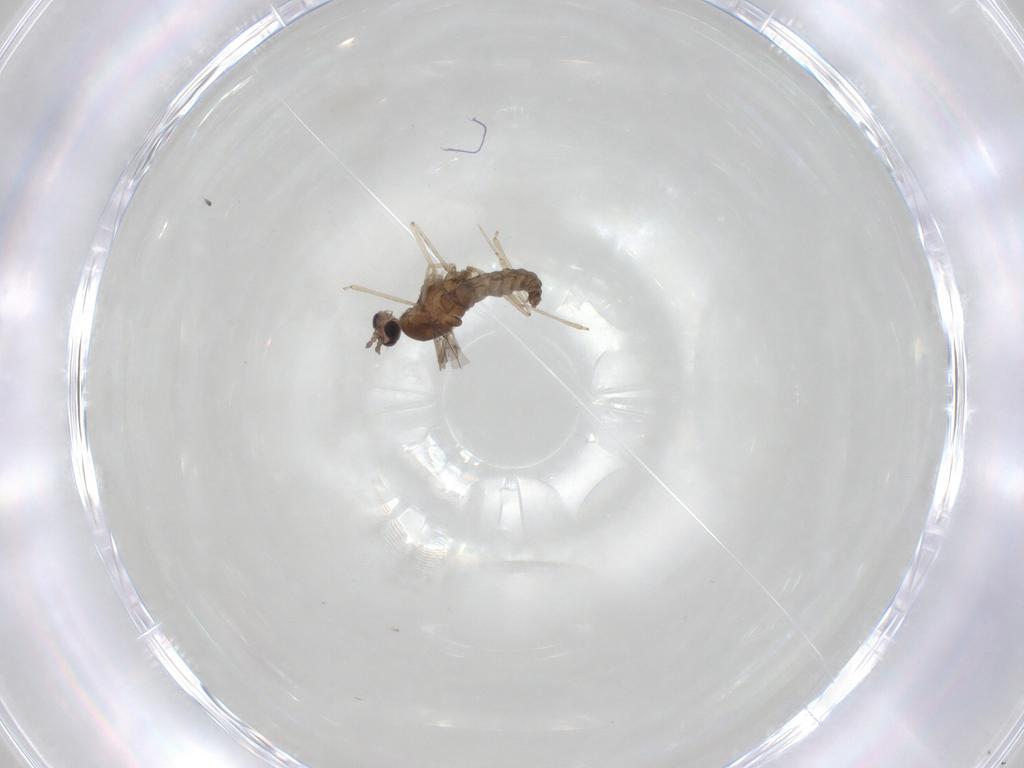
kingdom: Animalia
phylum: Arthropoda
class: Insecta
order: Diptera
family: Cecidomyiidae
